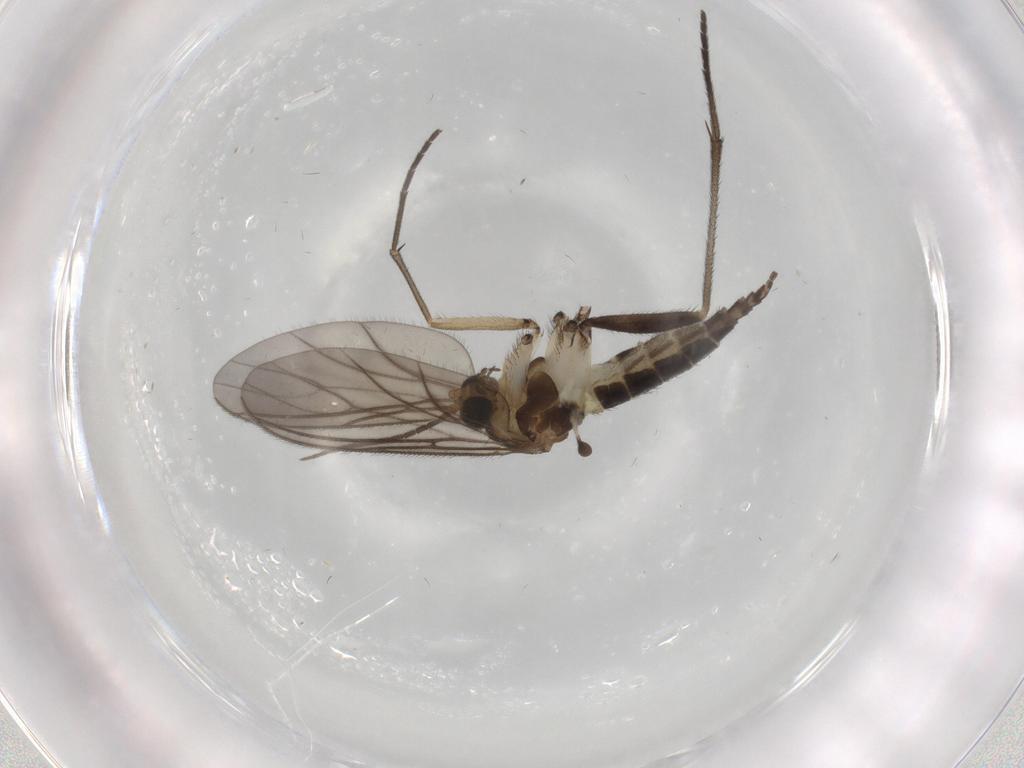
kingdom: Animalia
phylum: Arthropoda
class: Insecta
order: Diptera
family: Sciaridae
